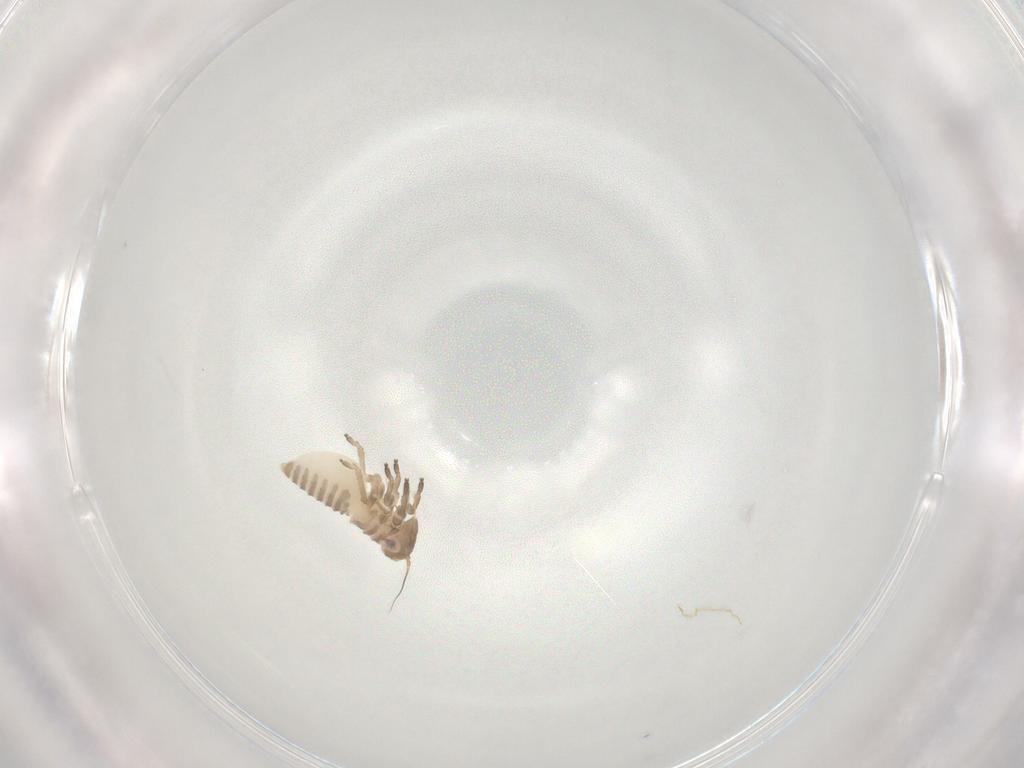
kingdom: Animalia
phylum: Arthropoda
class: Insecta
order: Hemiptera
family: Cicadellidae
